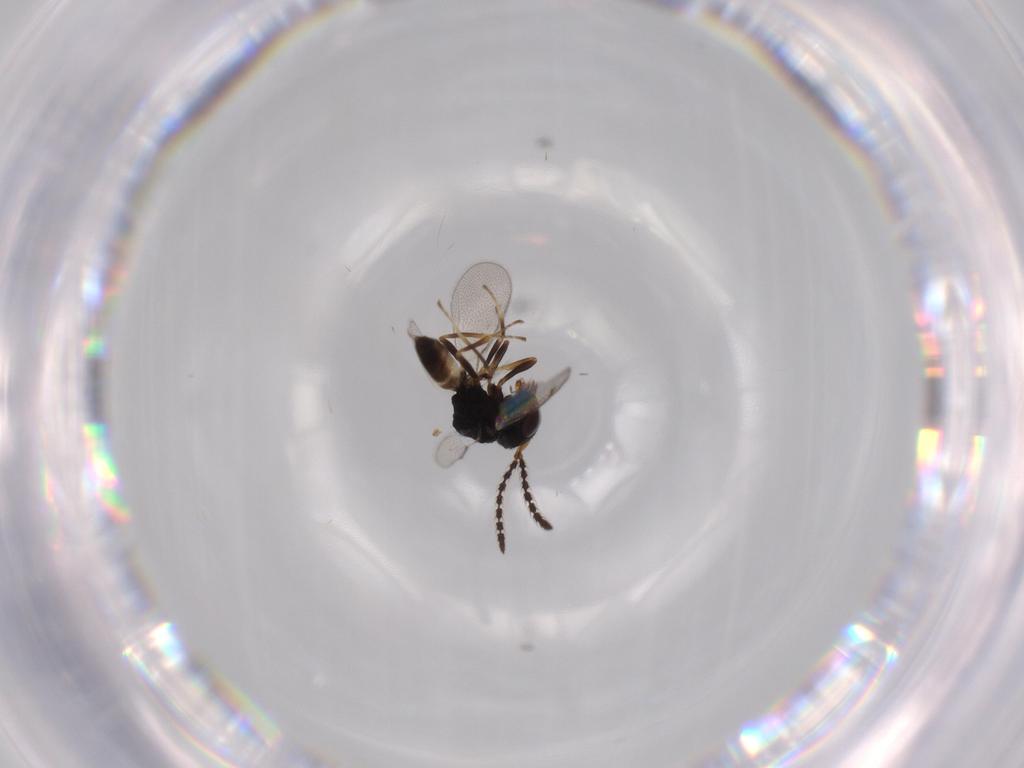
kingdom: Animalia
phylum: Arthropoda
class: Insecta
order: Hymenoptera
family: Pteromalidae
